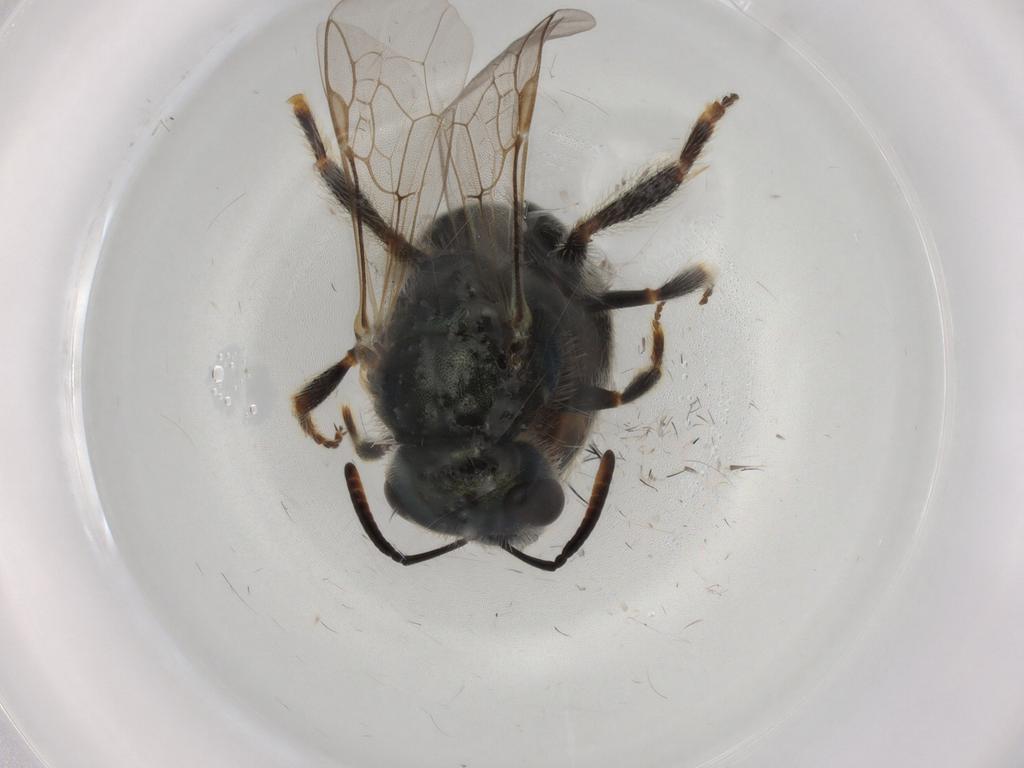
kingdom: Animalia
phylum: Arthropoda
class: Insecta
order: Hymenoptera
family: Halictidae
